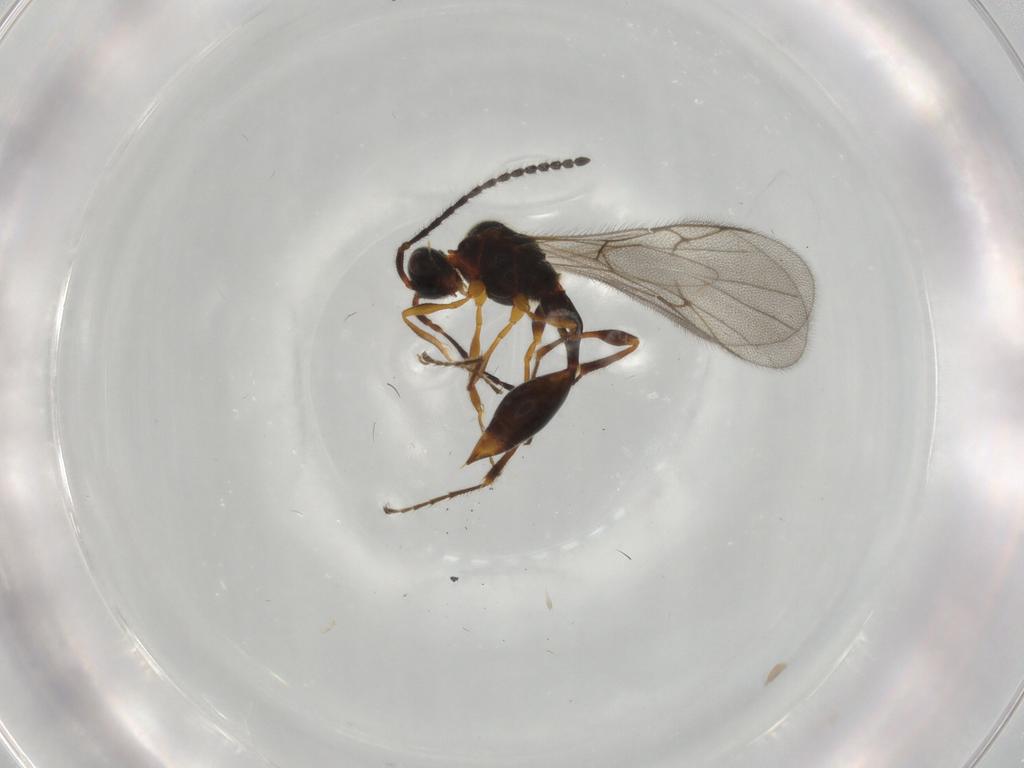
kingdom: Animalia
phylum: Arthropoda
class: Insecta
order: Hymenoptera
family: Diapriidae
